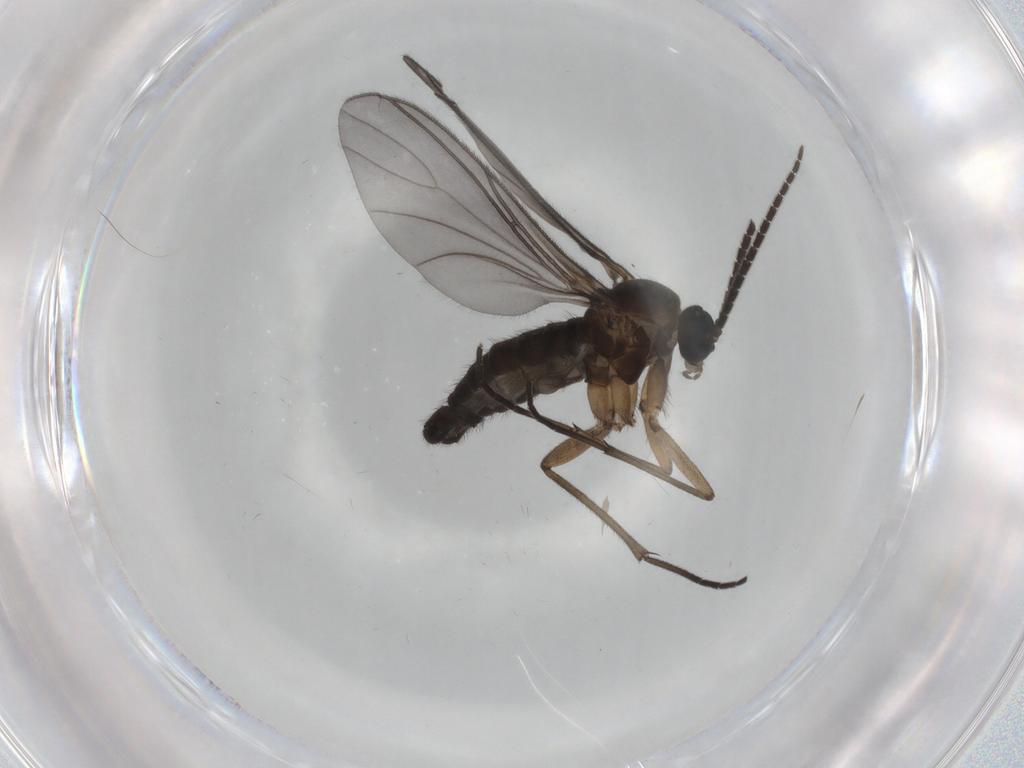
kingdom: Animalia
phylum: Arthropoda
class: Insecta
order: Diptera
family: Sciaridae
